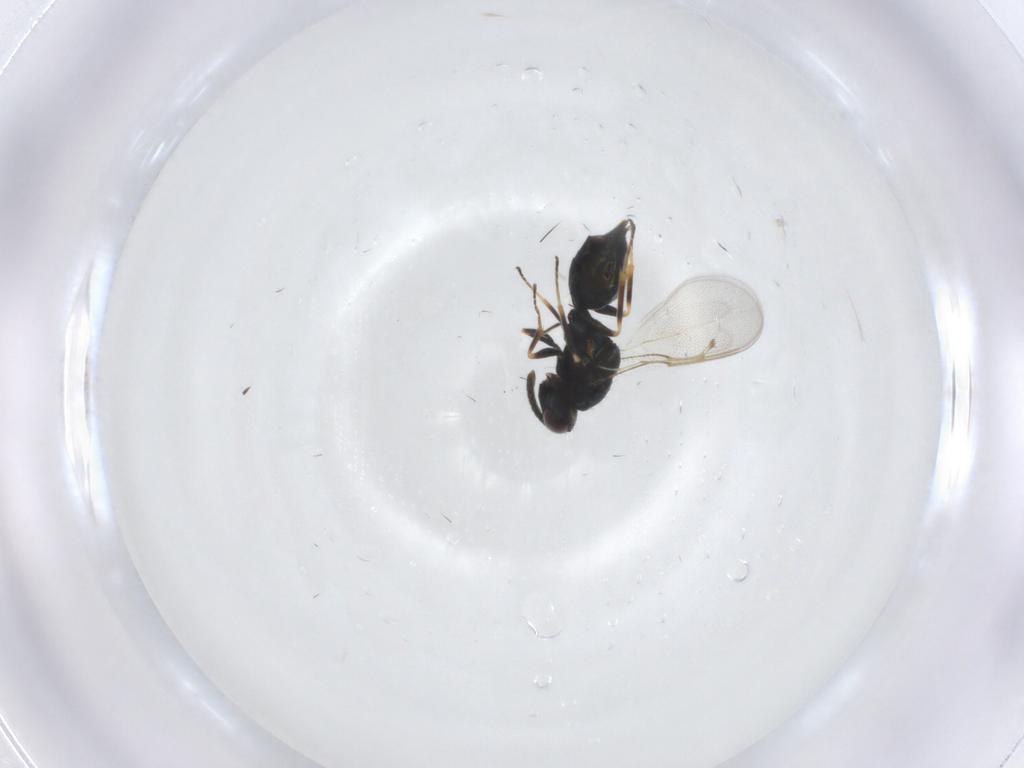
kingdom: Animalia
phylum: Arthropoda
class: Insecta
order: Hymenoptera
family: Pteromalidae
